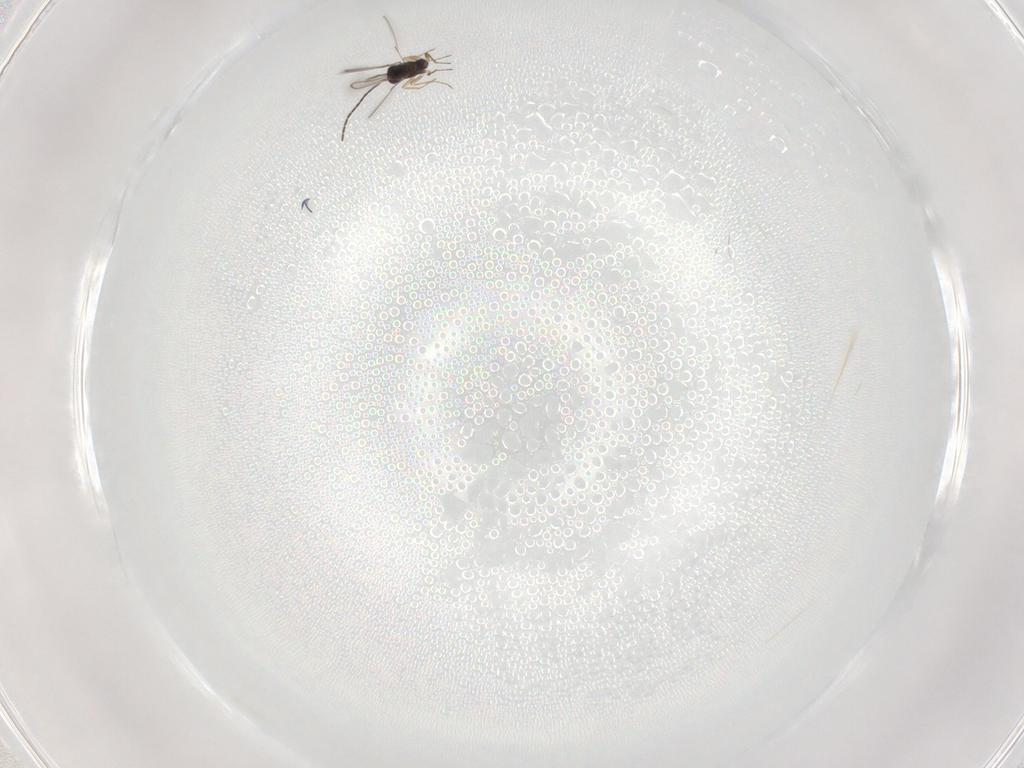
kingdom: Animalia
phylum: Arthropoda
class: Insecta
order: Hymenoptera
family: Mymaridae
